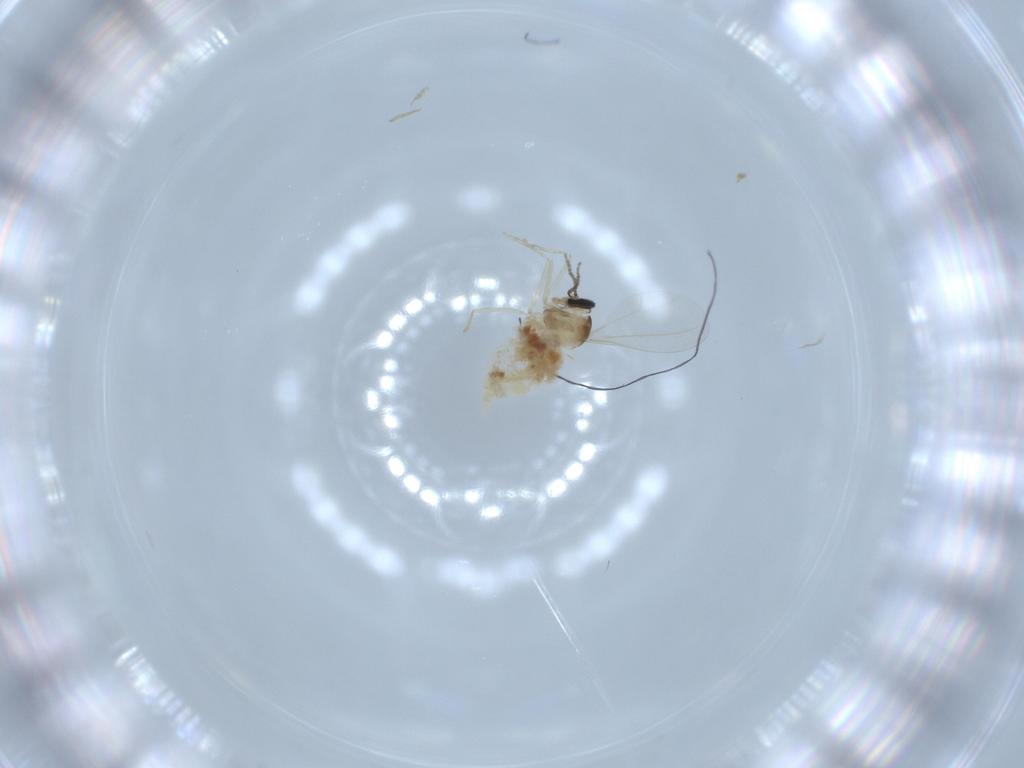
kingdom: Animalia
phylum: Arthropoda
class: Insecta
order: Diptera
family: Cecidomyiidae
